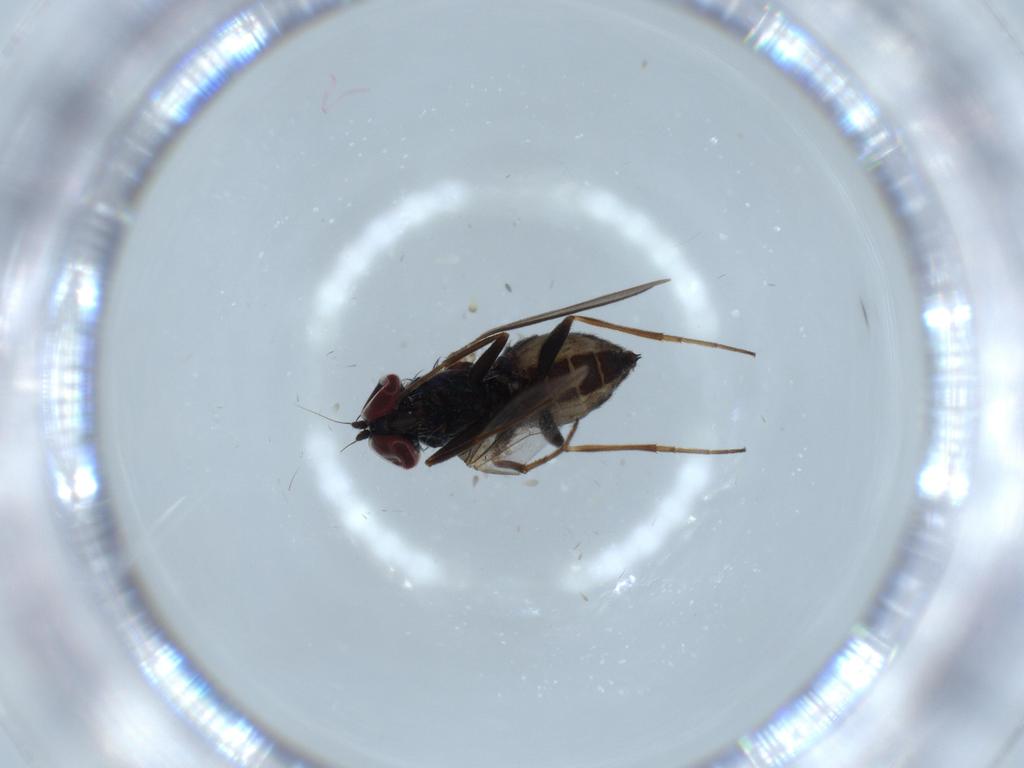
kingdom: Animalia
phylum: Arthropoda
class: Insecta
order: Diptera
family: Dolichopodidae
